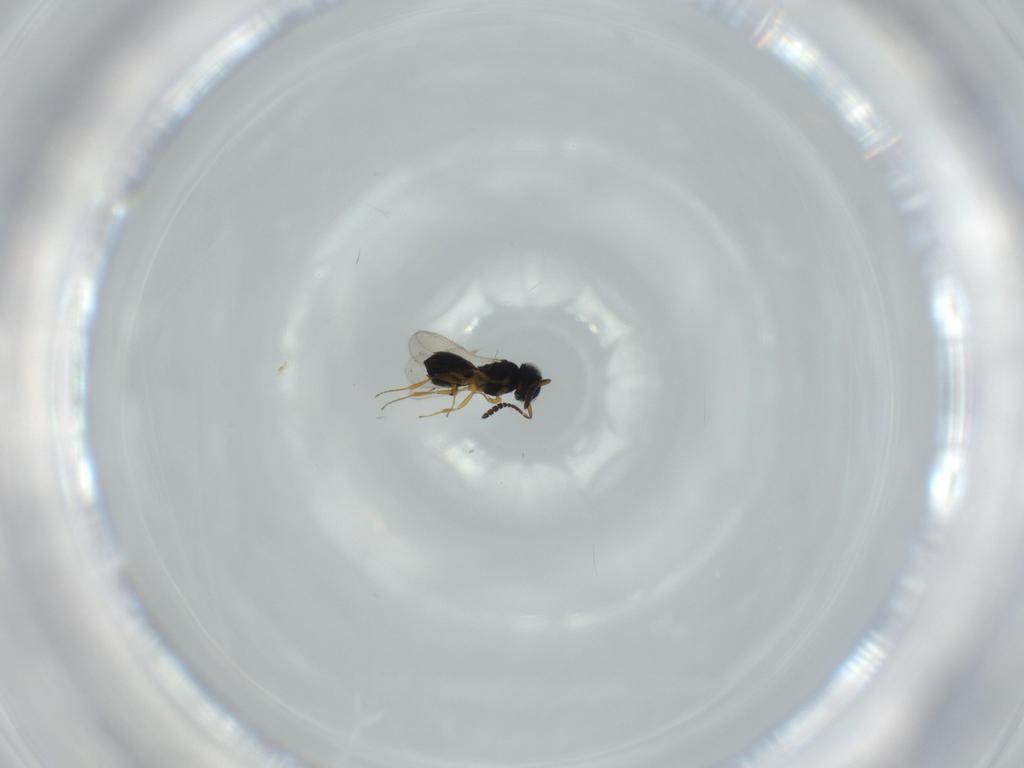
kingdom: Animalia
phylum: Arthropoda
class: Insecta
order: Hymenoptera
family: Scelionidae
